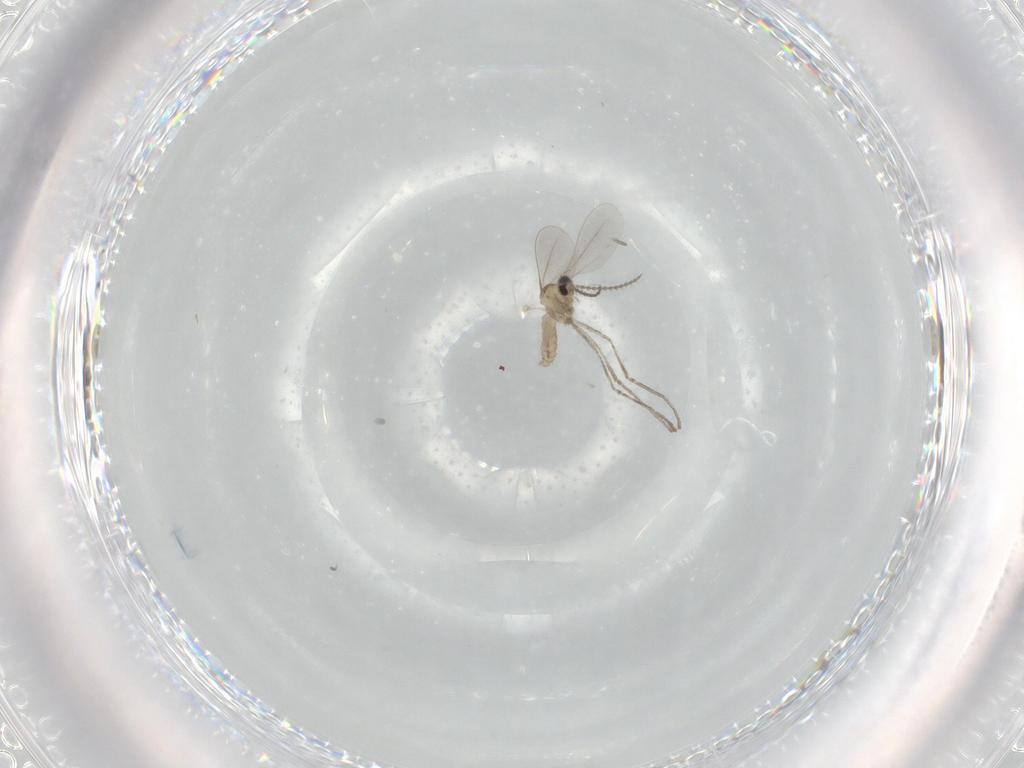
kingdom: Animalia
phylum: Arthropoda
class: Insecta
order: Diptera
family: Cecidomyiidae
